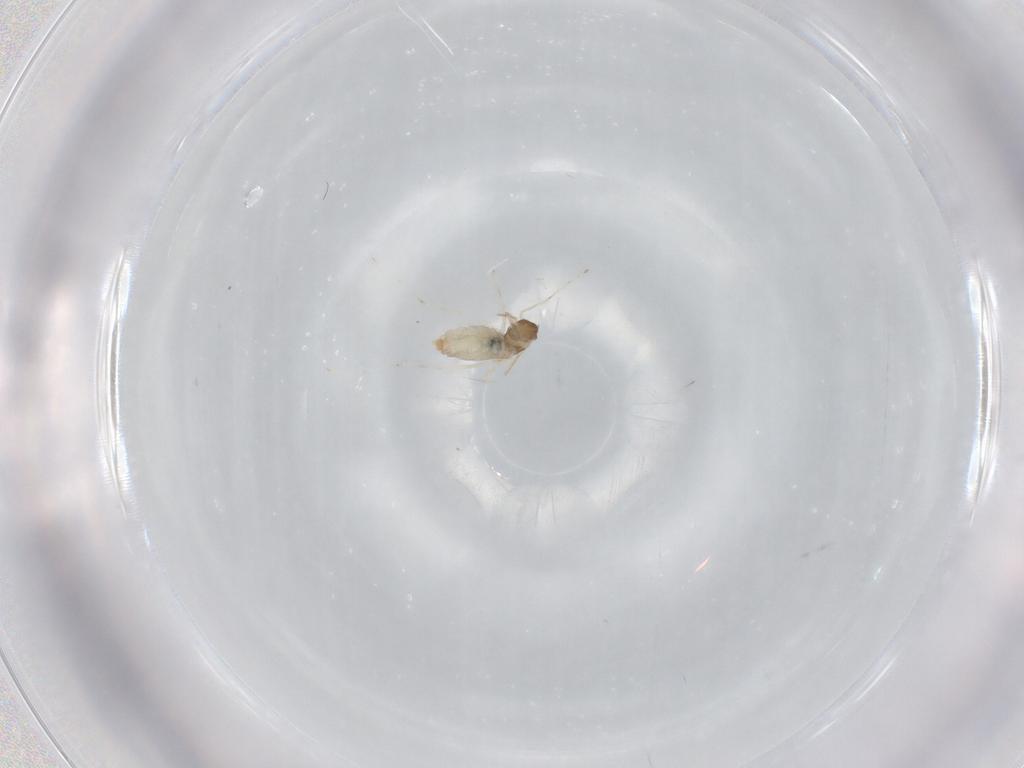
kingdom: Animalia
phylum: Arthropoda
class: Insecta
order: Diptera
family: Cecidomyiidae
